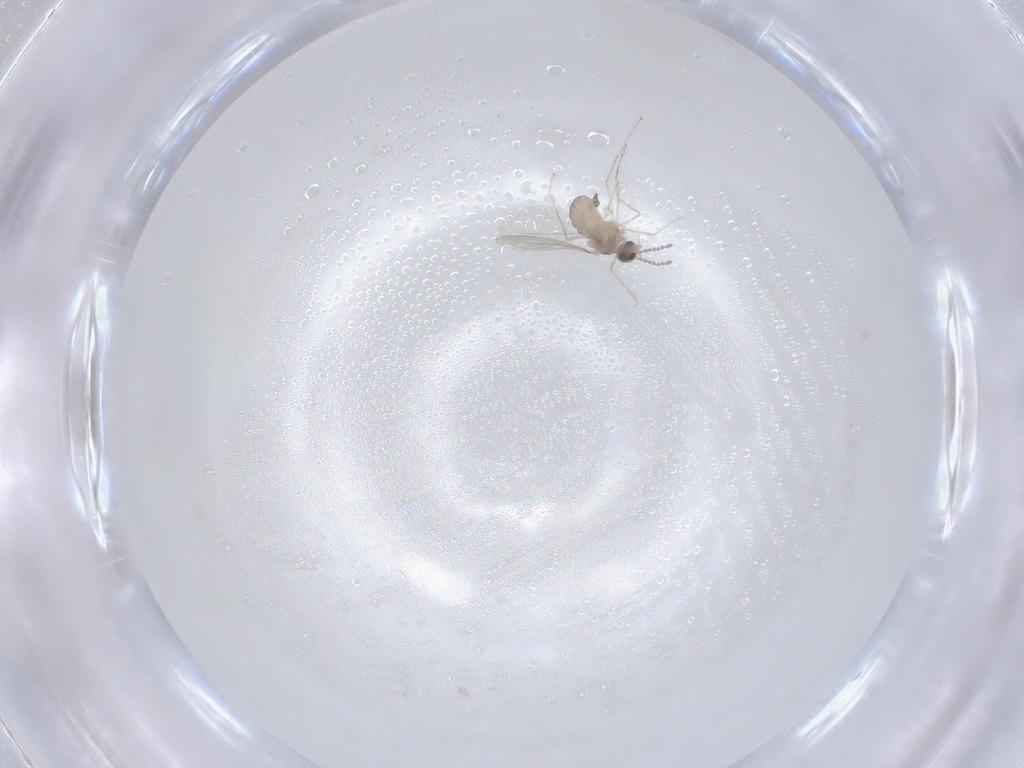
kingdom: Animalia
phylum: Arthropoda
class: Insecta
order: Diptera
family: Cecidomyiidae
